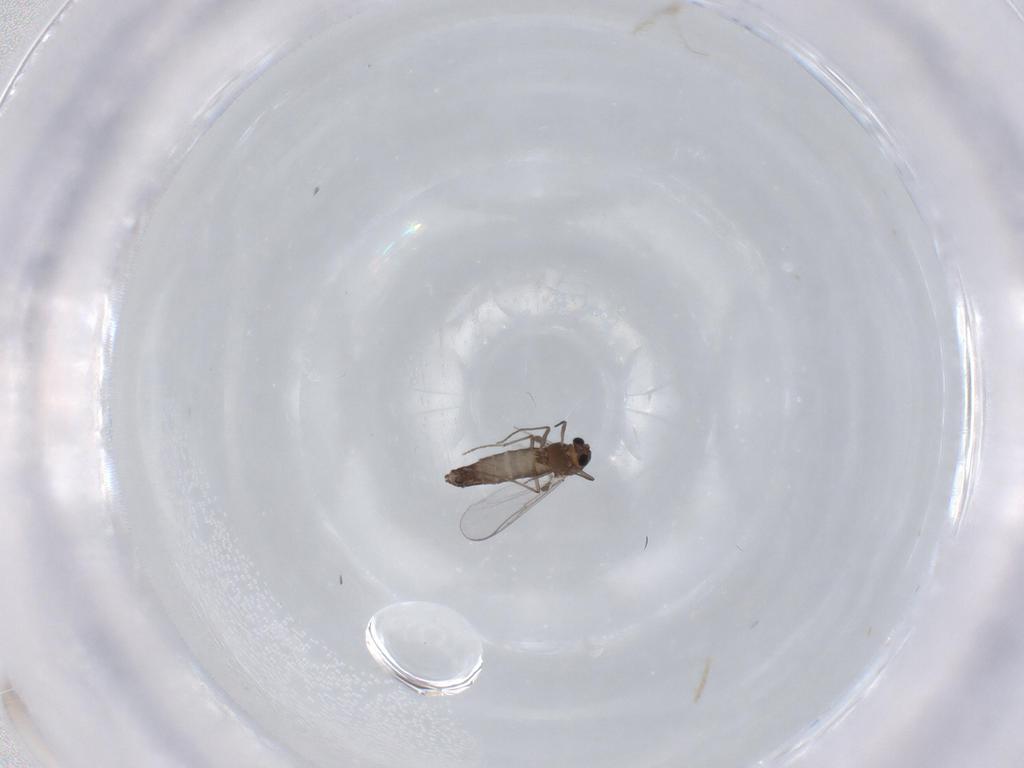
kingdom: Animalia
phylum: Arthropoda
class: Insecta
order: Diptera
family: Chironomidae
